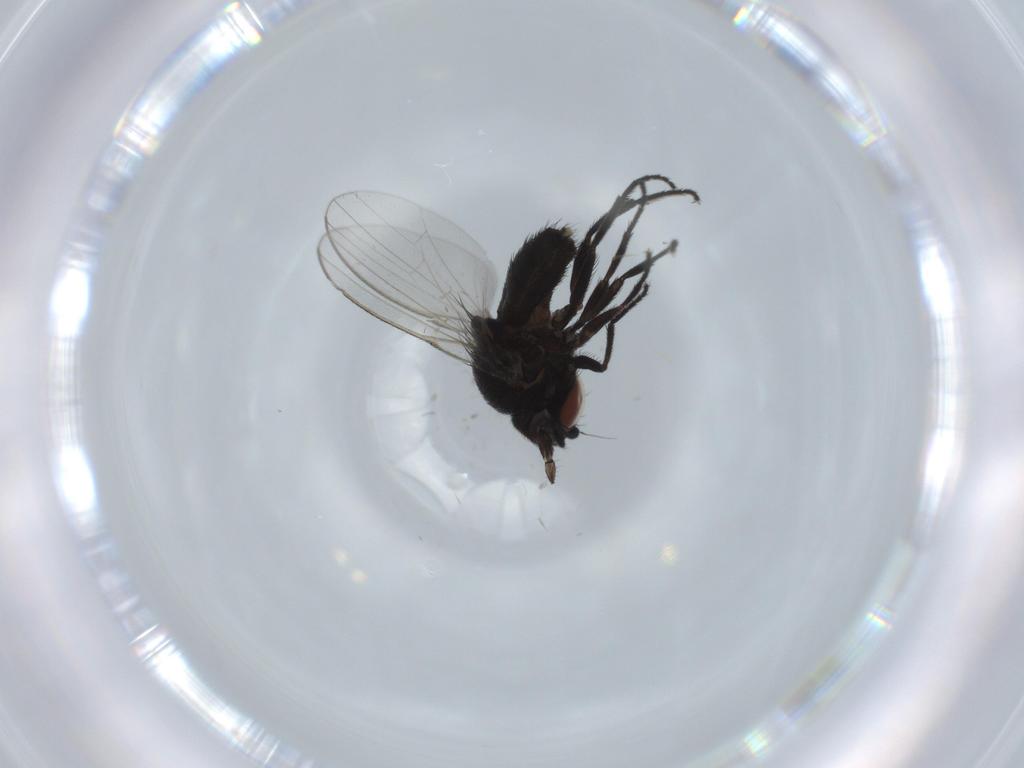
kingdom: Animalia
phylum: Arthropoda
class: Insecta
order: Diptera
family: Milichiidae
